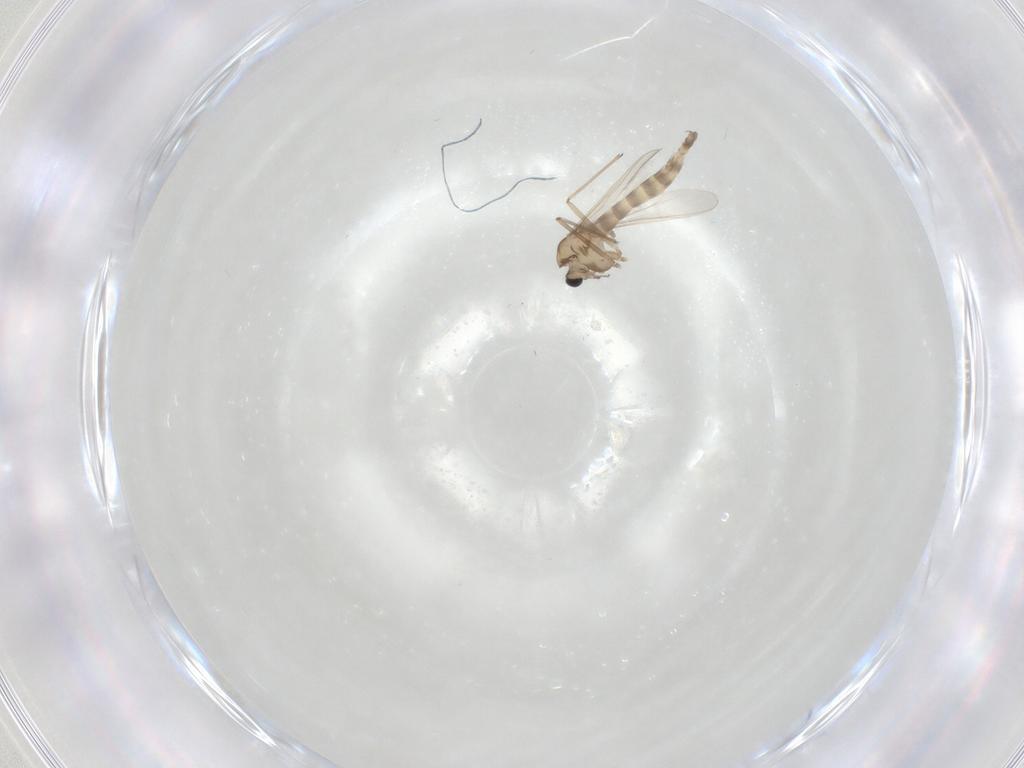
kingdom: Animalia
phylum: Arthropoda
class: Insecta
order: Diptera
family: Chironomidae
